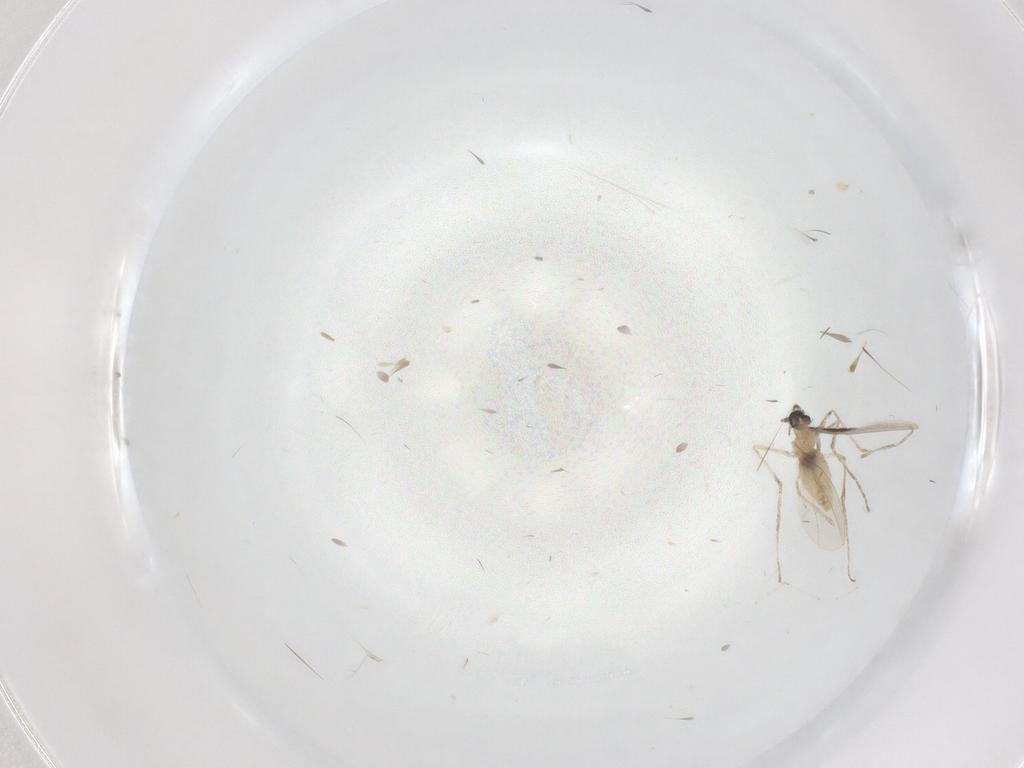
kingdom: Animalia
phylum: Arthropoda
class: Insecta
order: Diptera
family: Cecidomyiidae
